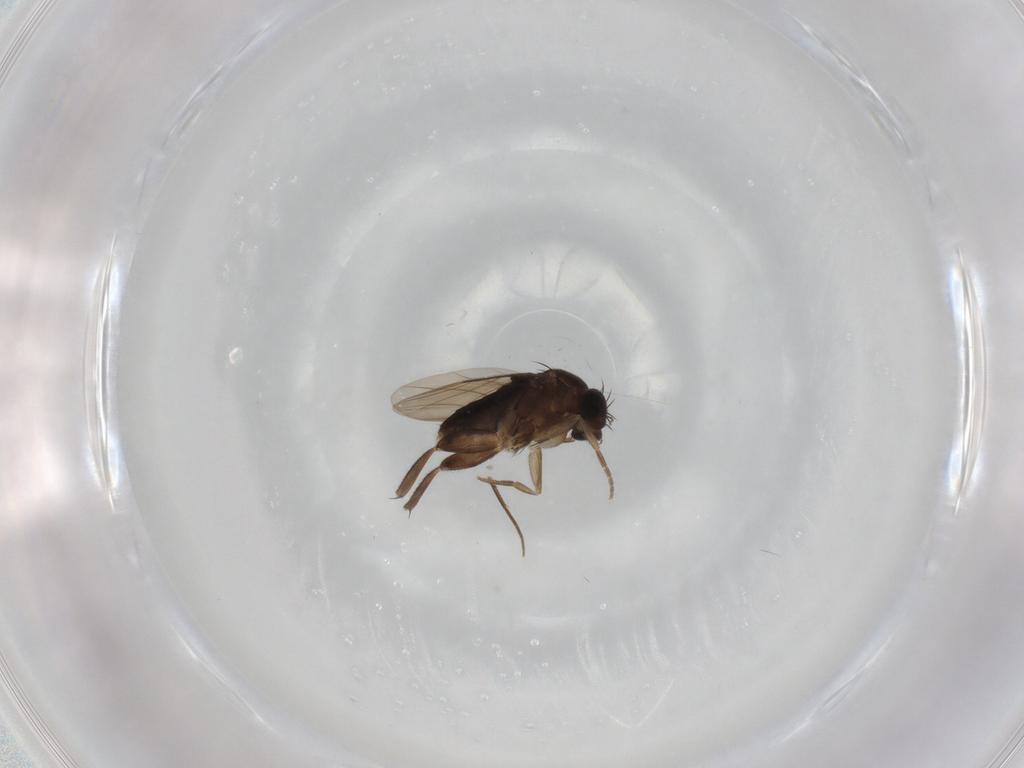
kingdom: Animalia
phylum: Arthropoda
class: Insecta
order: Diptera
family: Phoridae
